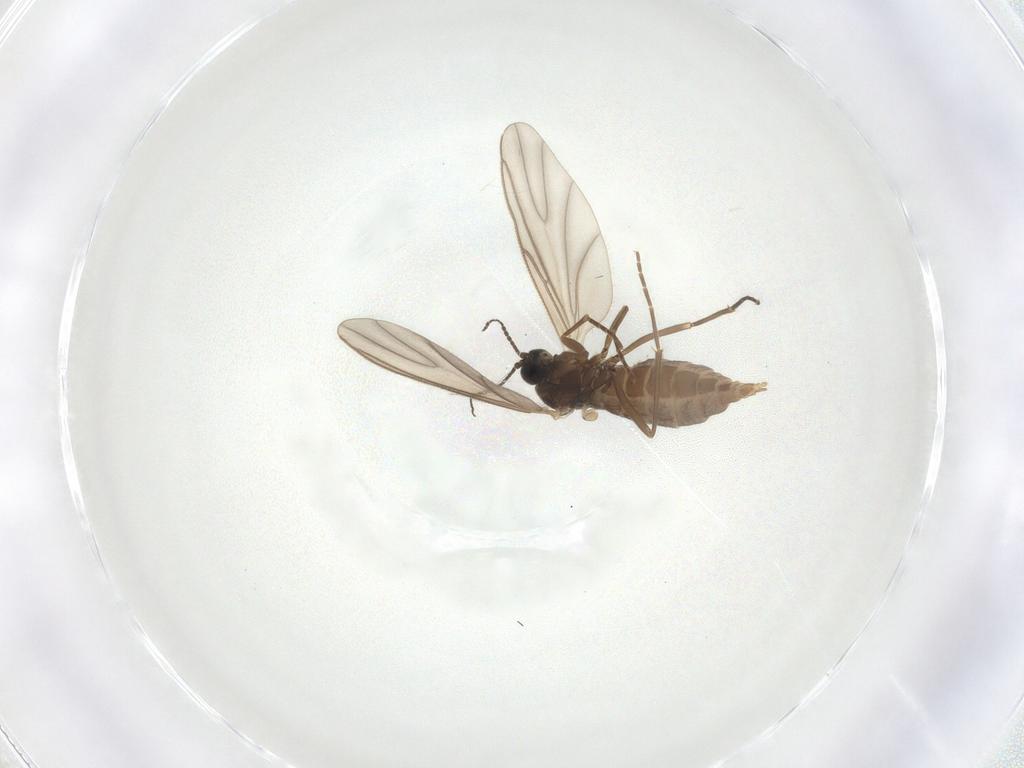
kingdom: Animalia
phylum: Arthropoda
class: Insecta
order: Diptera
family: Sciaridae
